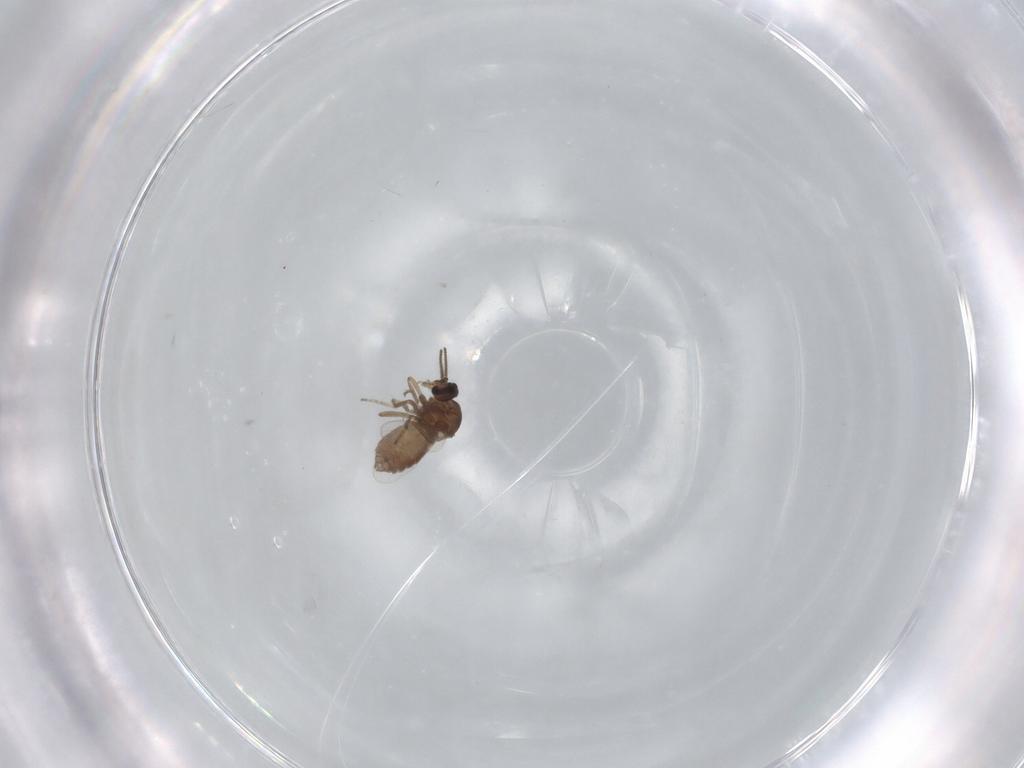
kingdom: Animalia
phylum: Arthropoda
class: Insecta
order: Diptera
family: Ceratopogonidae
